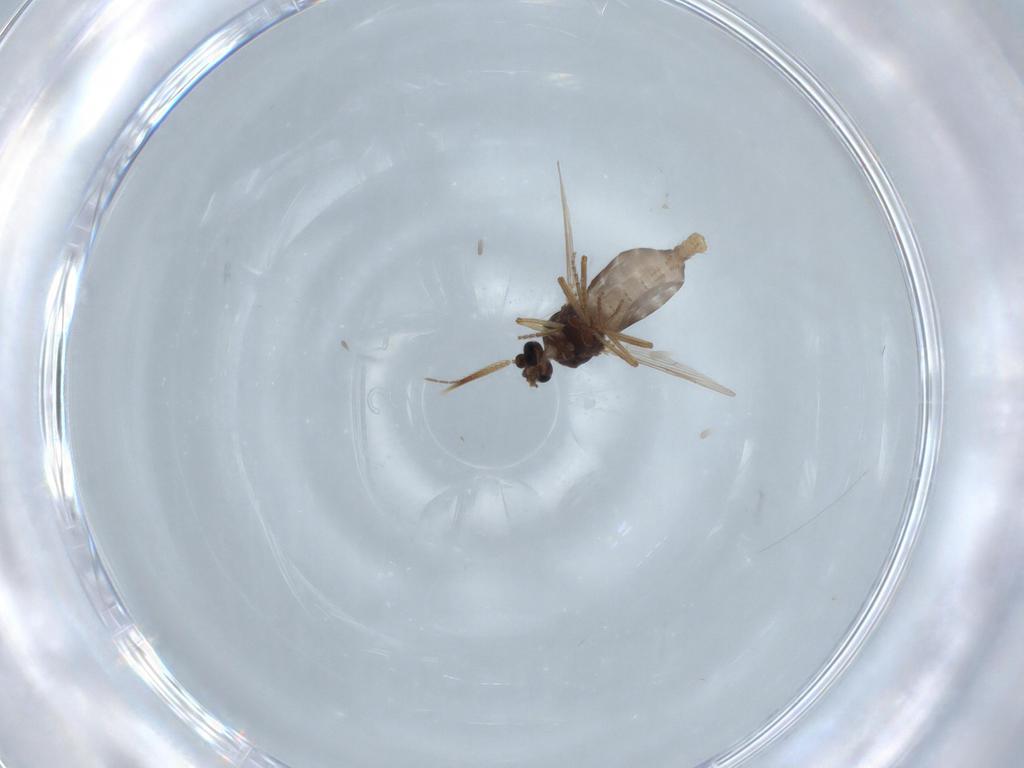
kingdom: Animalia
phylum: Arthropoda
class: Insecta
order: Diptera
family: Ceratopogonidae
